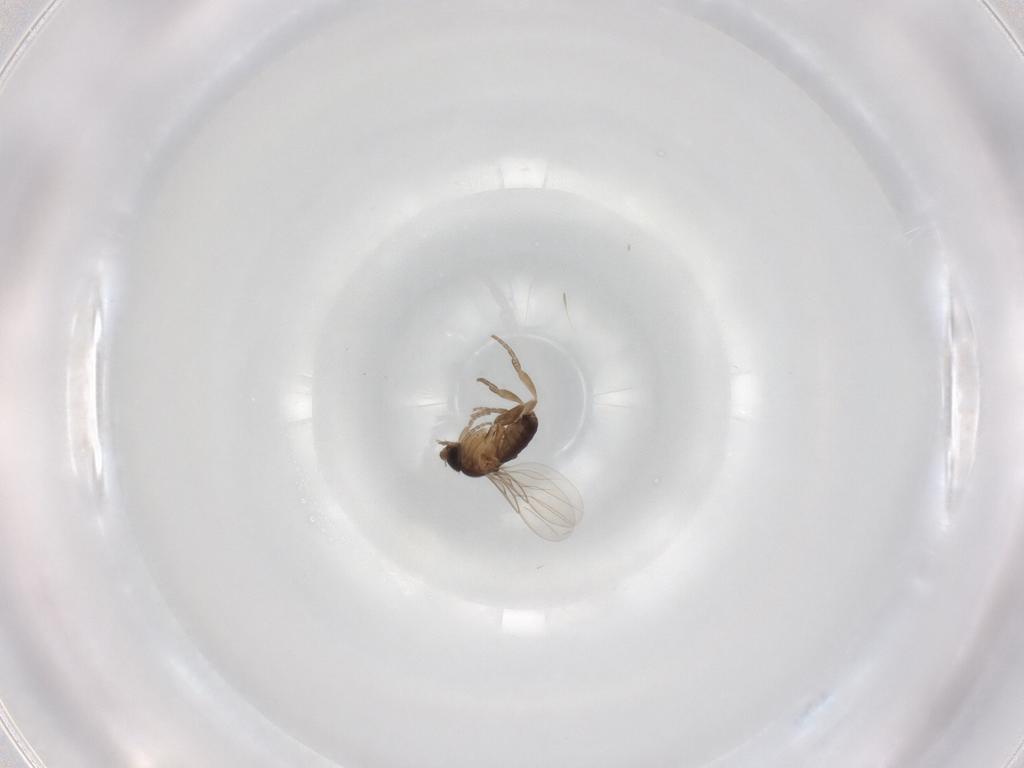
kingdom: Animalia
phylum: Arthropoda
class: Insecta
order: Diptera
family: Phoridae
